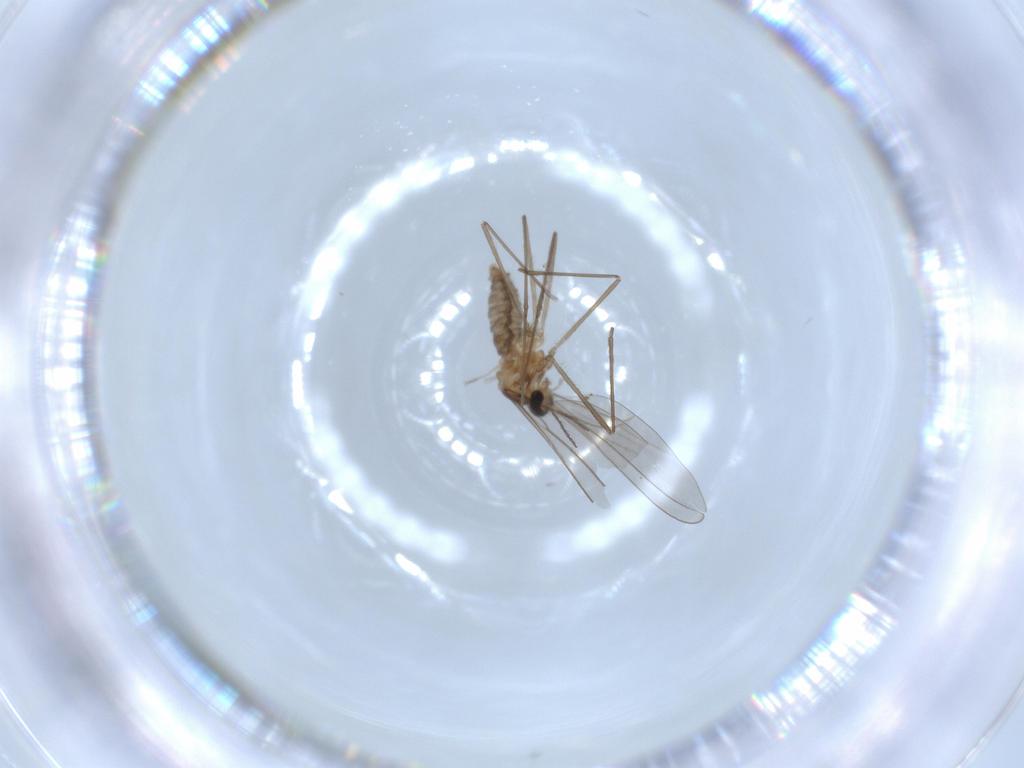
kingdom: Animalia
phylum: Arthropoda
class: Insecta
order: Diptera
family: Cecidomyiidae
